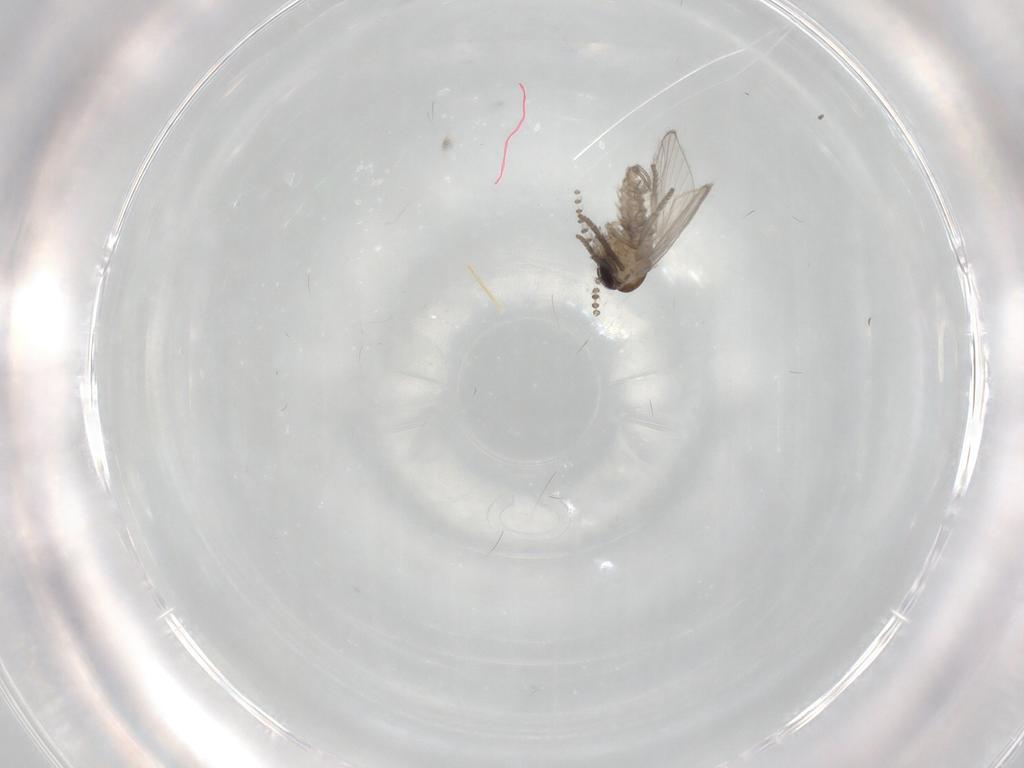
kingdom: Animalia
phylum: Arthropoda
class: Insecta
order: Diptera
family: Psychodidae
